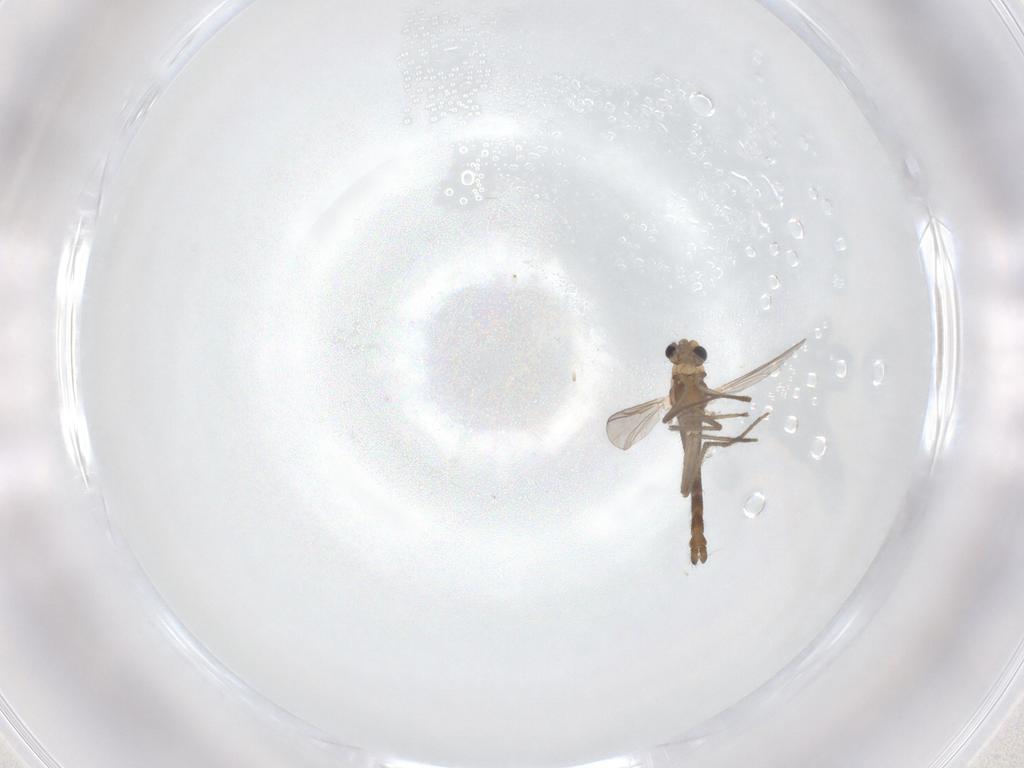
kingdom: Animalia
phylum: Arthropoda
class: Insecta
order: Diptera
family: Chironomidae
